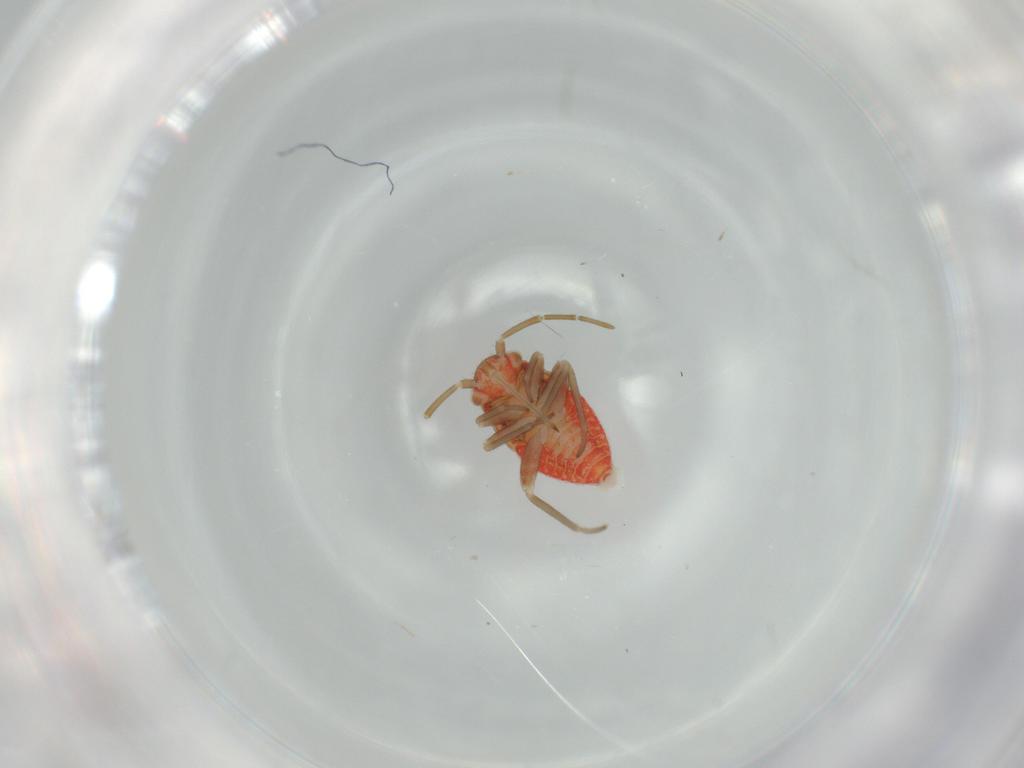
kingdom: Animalia
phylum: Arthropoda
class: Insecta
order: Hemiptera
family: Miridae
